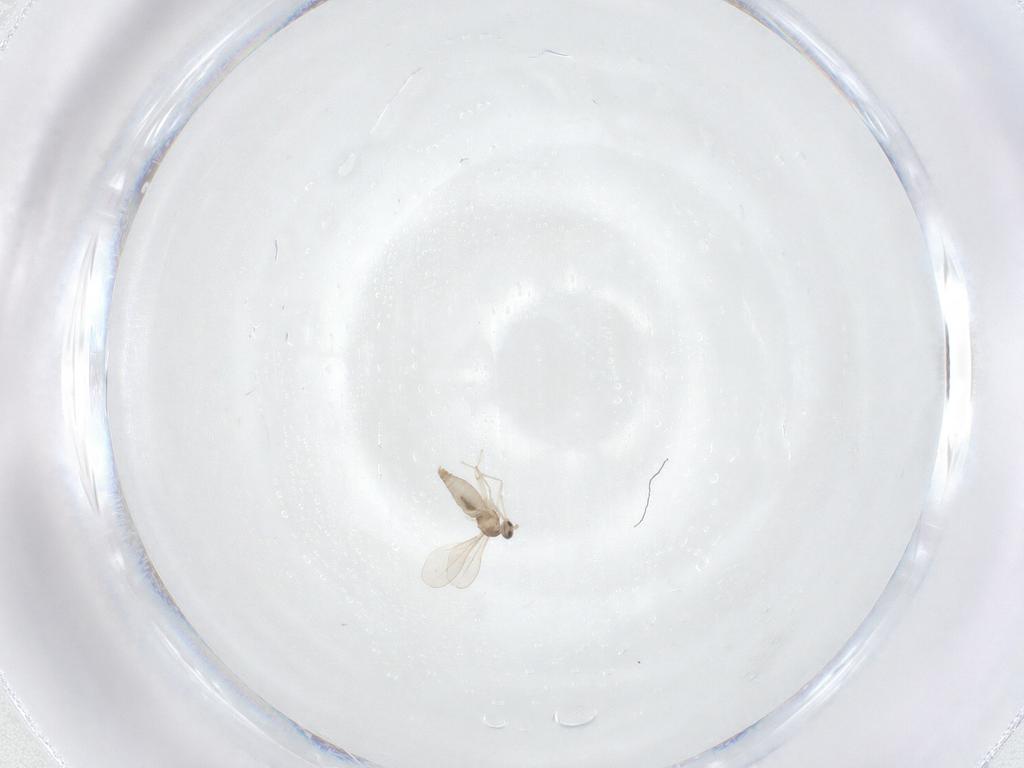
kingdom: Animalia
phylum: Arthropoda
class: Insecta
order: Diptera
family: Cecidomyiidae
